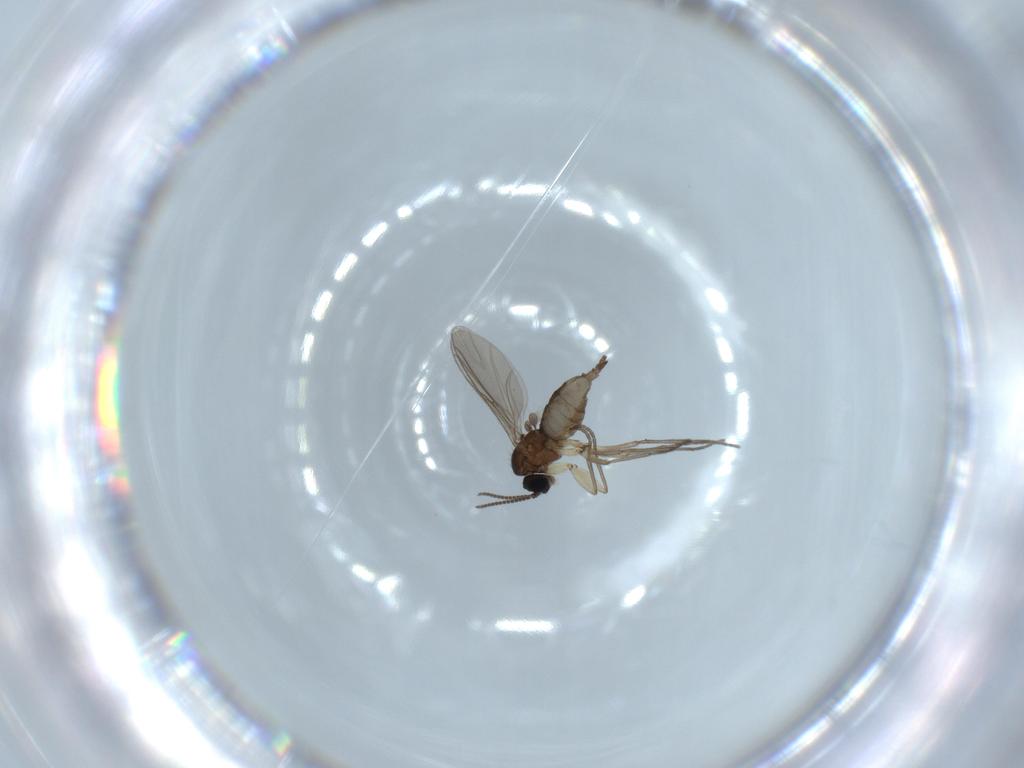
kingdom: Animalia
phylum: Arthropoda
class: Insecta
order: Diptera
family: Sciaridae
